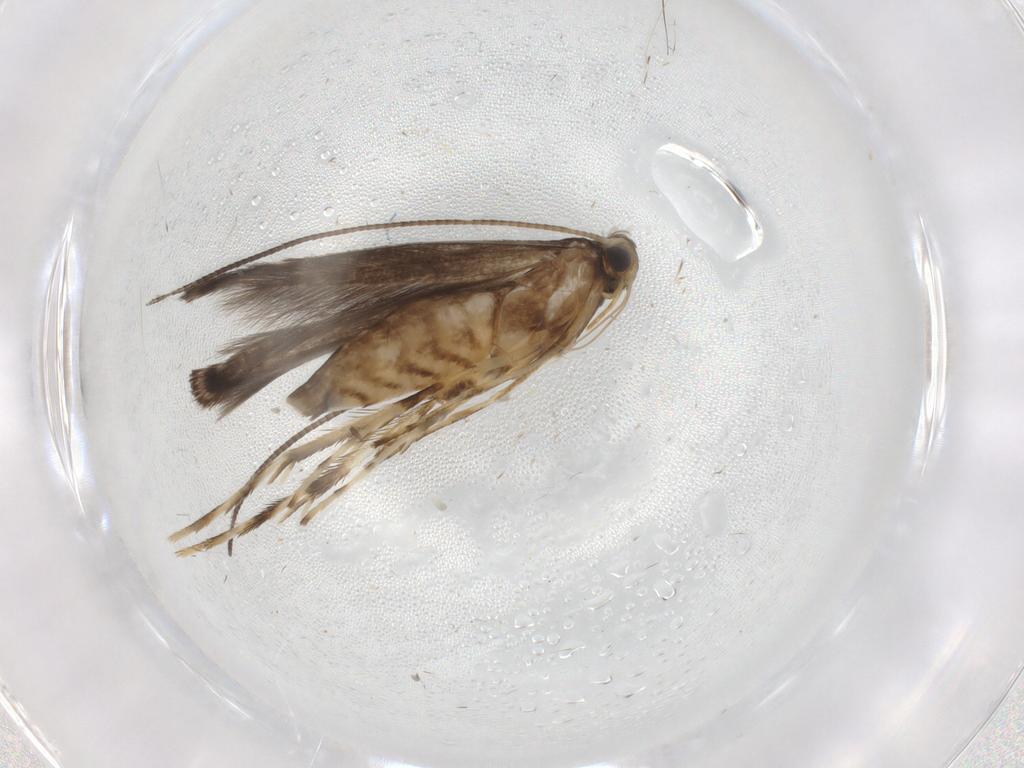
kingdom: Animalia
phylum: Arthropoda
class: Insecta
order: Lepidoptera
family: Gracillariidae
